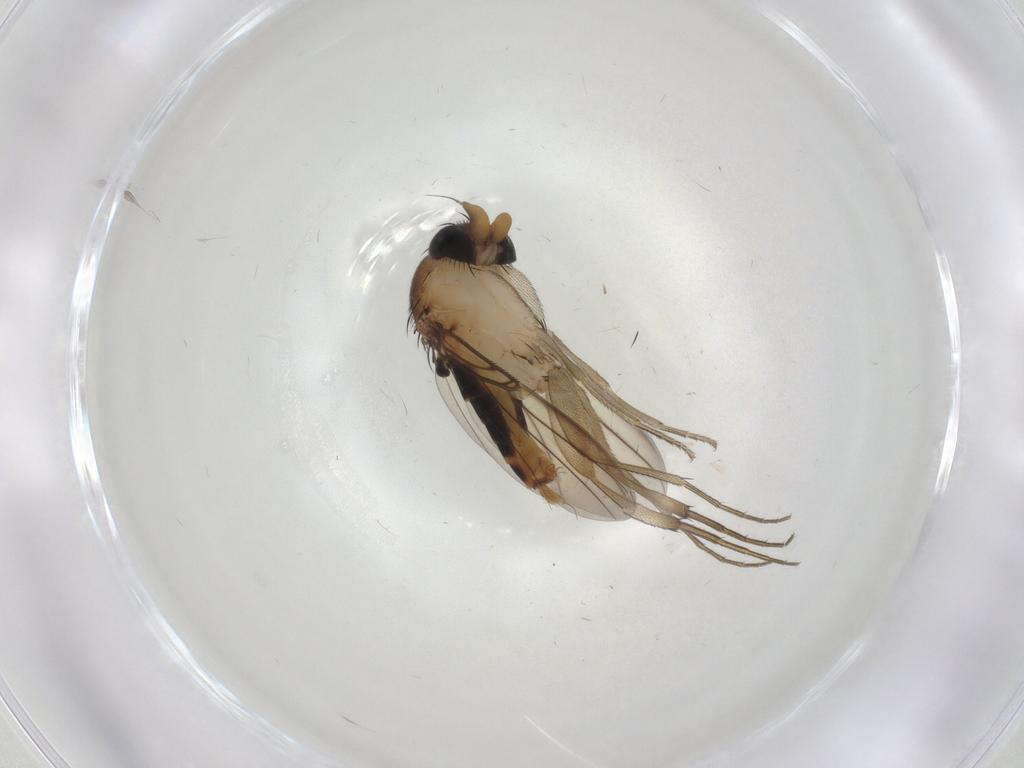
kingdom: Animalia
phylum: Arthropoda
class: Insecta
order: Diptera
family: Phoridae
